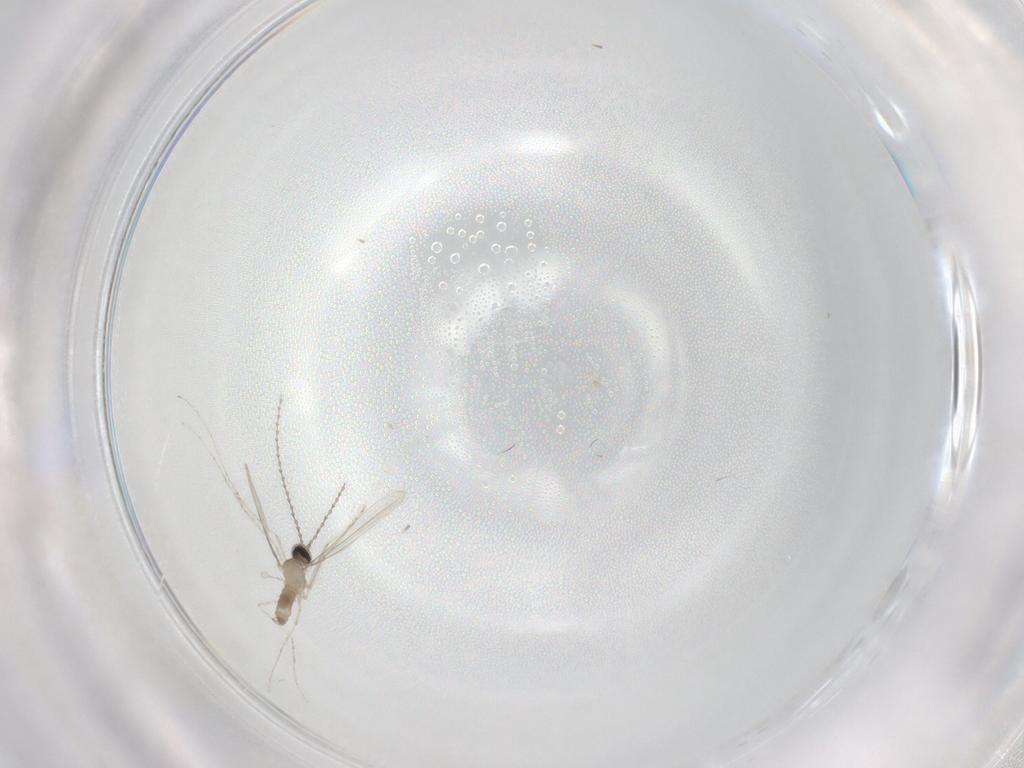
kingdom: Animalia
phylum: Arthropoda
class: Insecta
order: Diptera
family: Cecidomyiidae
